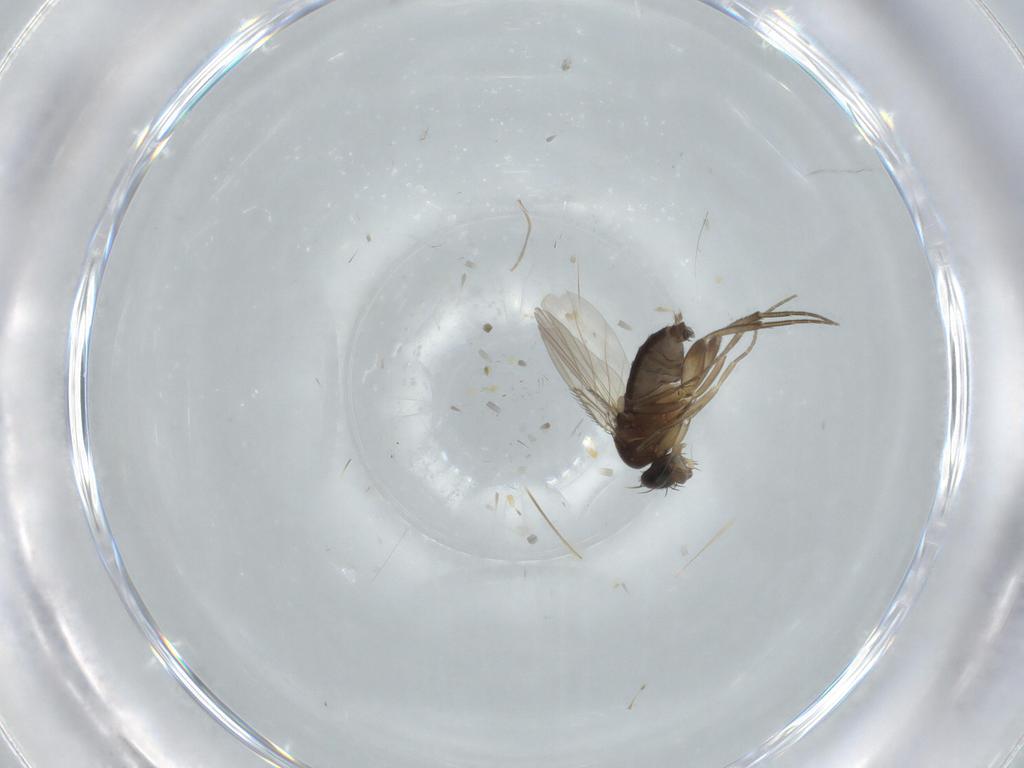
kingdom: Animalia
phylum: Arthropoda
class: Insecta
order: Diptera
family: Phoridae
